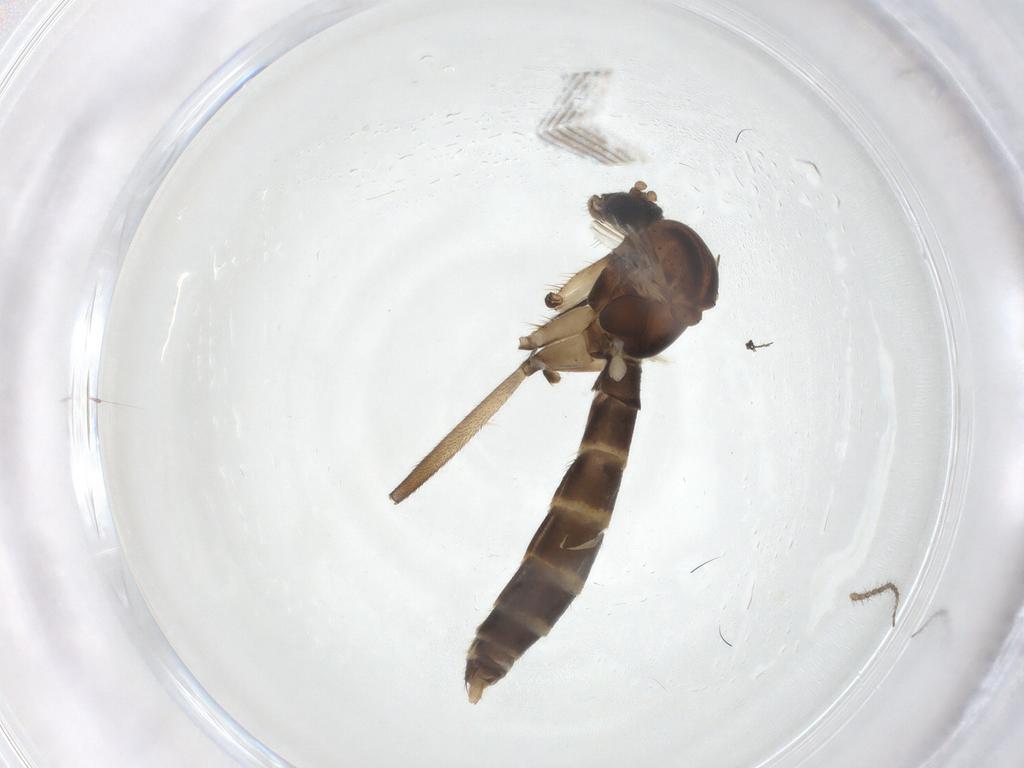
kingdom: Animalia
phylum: Arthropoda
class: Insecta
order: Diptera
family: Mycetophilidae
